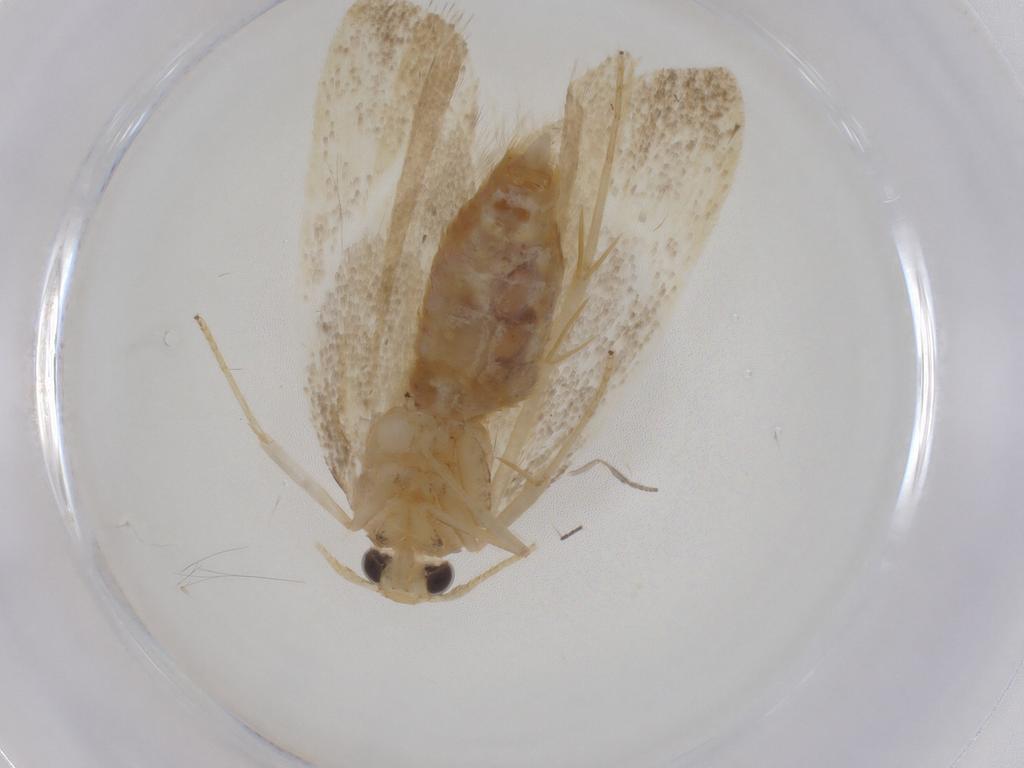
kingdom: Animalia
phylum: Arthropoda
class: Insecta
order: Lepidoptera
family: Lecithoceridae
